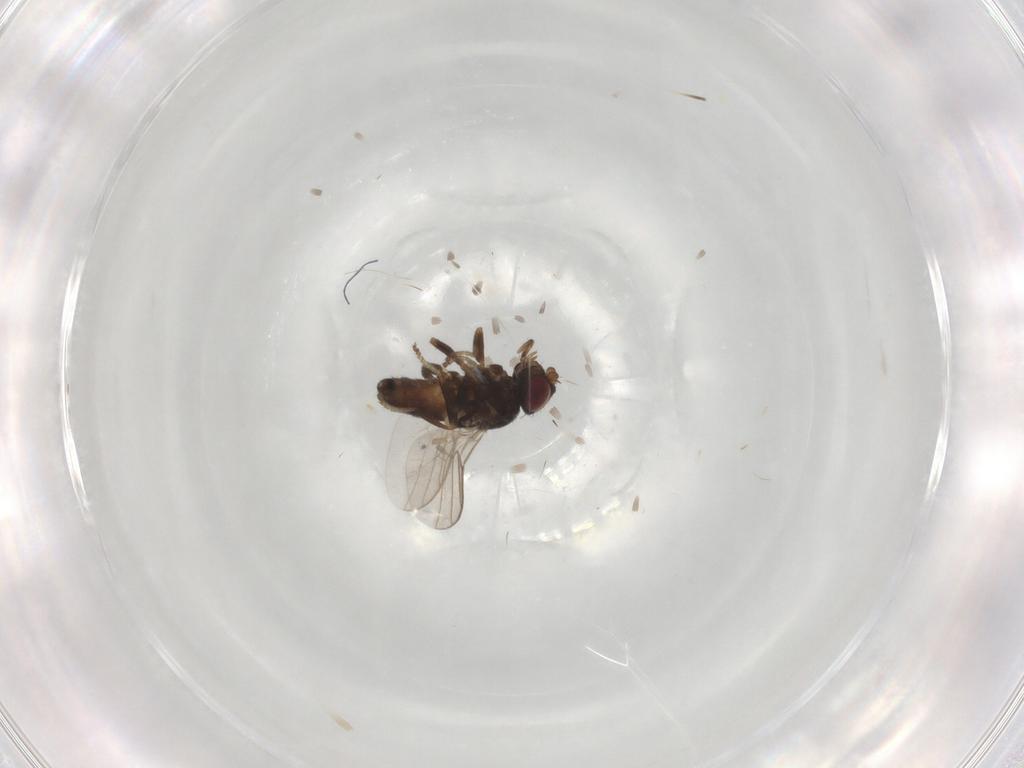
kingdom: Animalia
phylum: Arthropoda
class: Insecta
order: Diptera
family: Chloropidae
